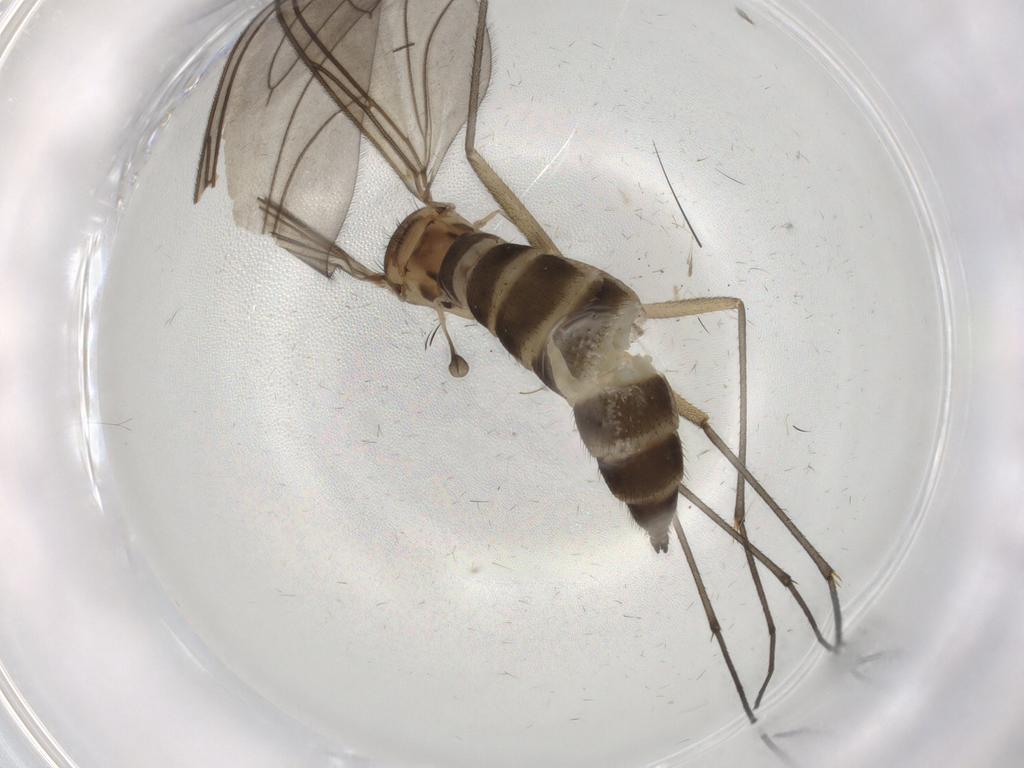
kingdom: Animalia
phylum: Arthropoda
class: Insecta
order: Diptera
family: Sciaridae
